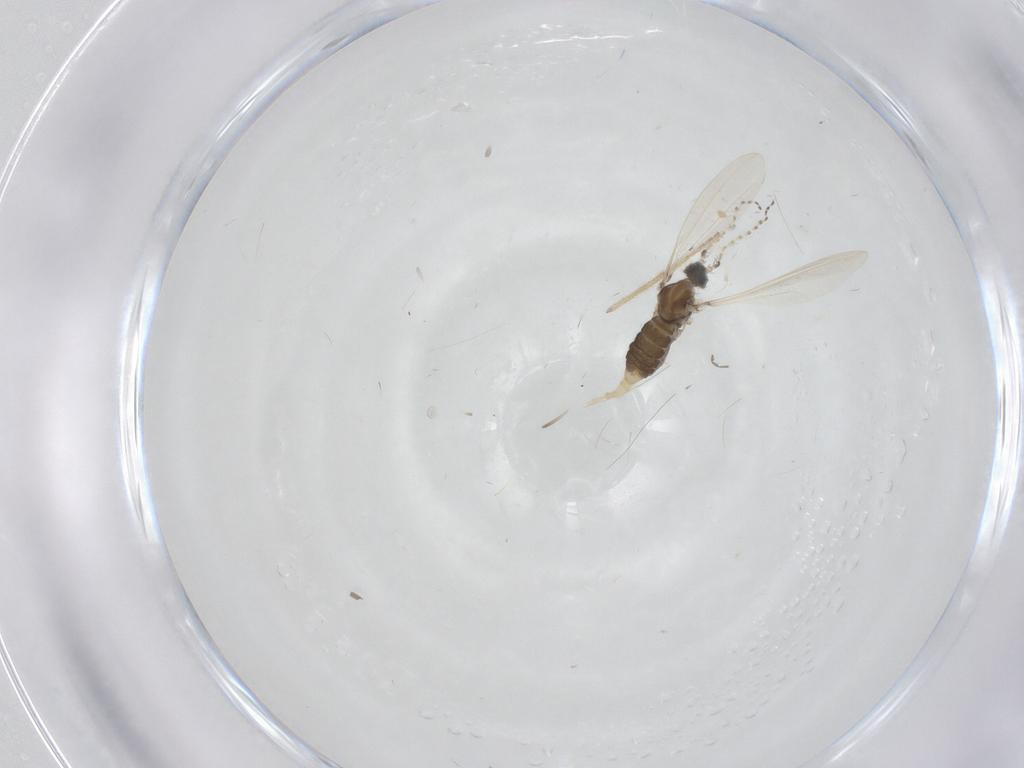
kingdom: Animalia
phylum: Arthropoda
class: Insecta
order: Diptera
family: Cecidomyiidae
